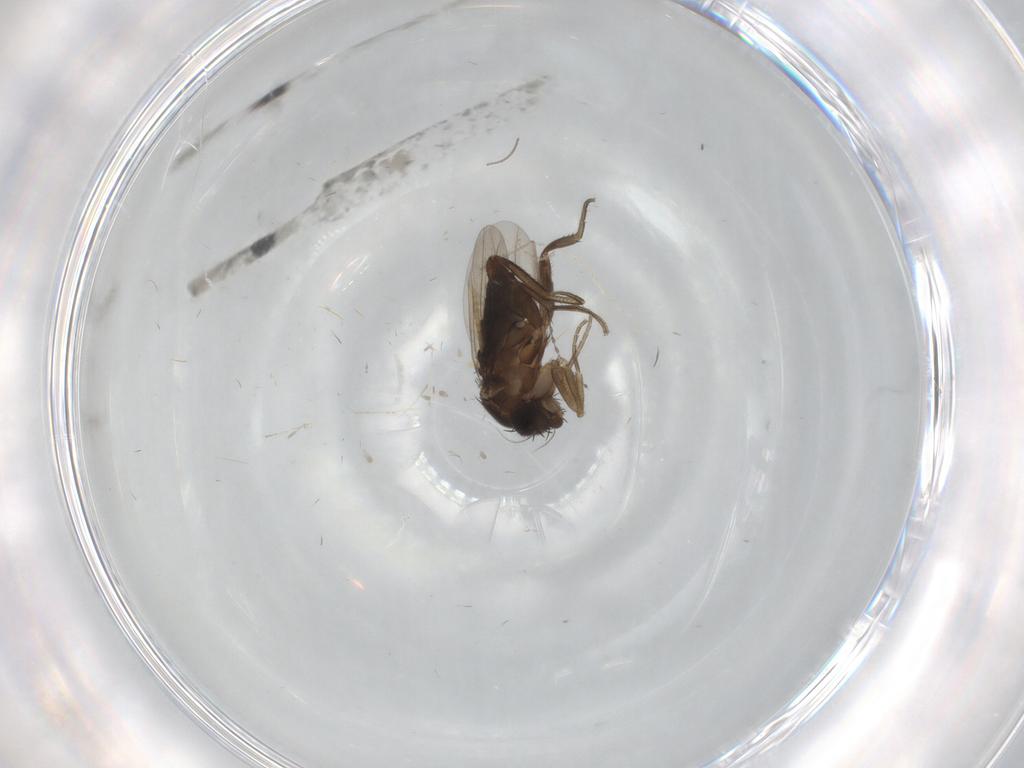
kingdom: Animalia
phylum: Arthropoda
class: Insecta
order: Diptera
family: Phoridae
